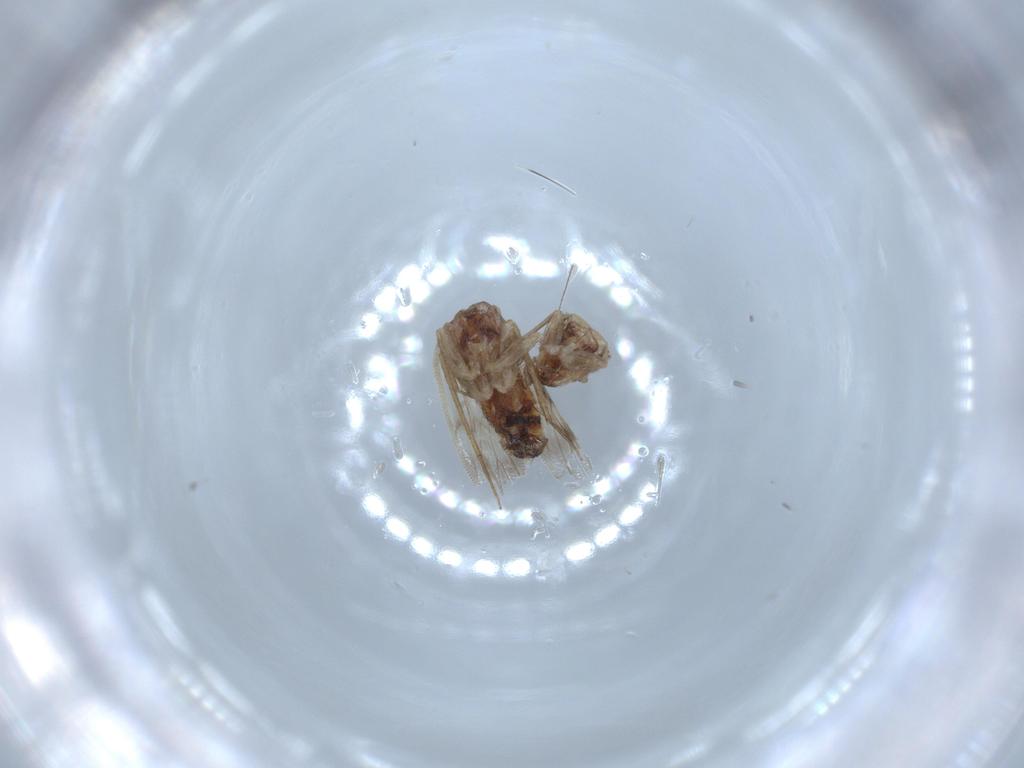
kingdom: Animalia
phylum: Arthropoda
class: Insecta
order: Psocodea
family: Lepidopsocidae
